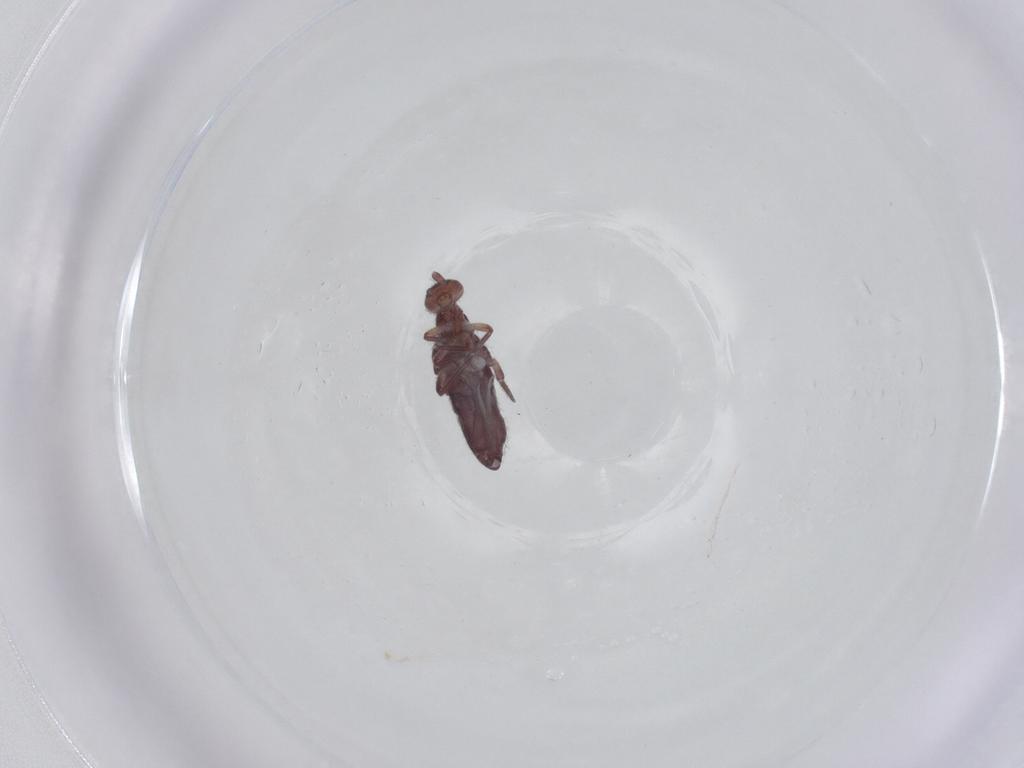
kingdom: Animalia
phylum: Arthropoda
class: Collembola
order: Entomobryomorpha
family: Entomobryidae
